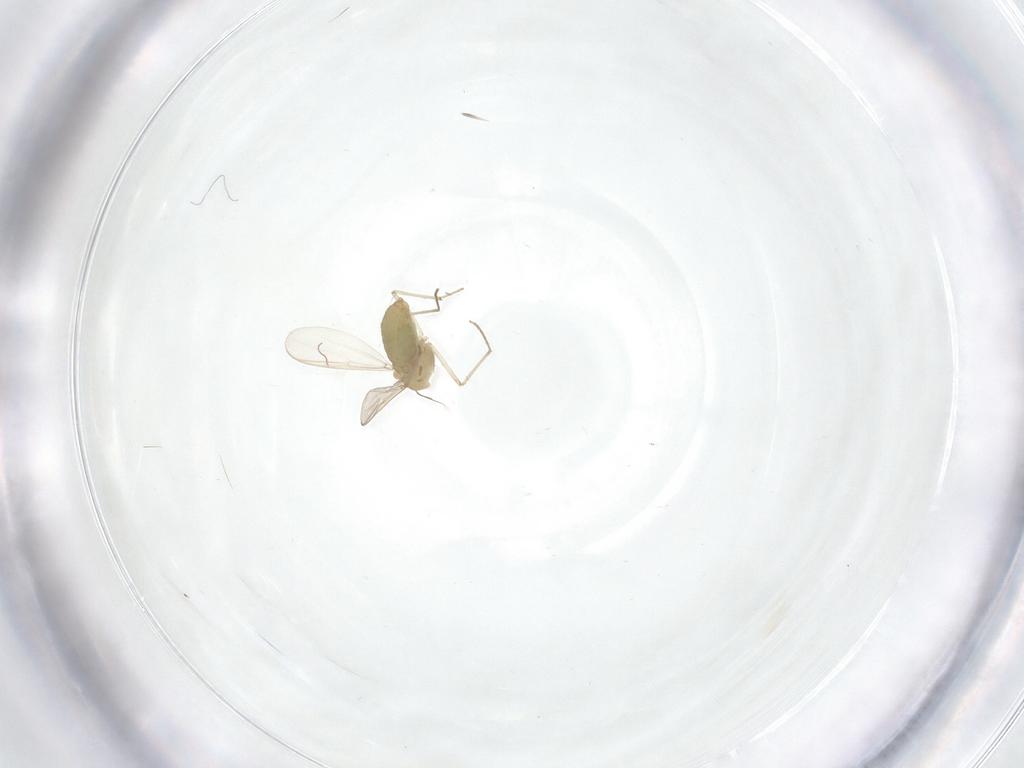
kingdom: Animalia
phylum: Arthropoda
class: Insecta
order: Diptera
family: Chironomidae
